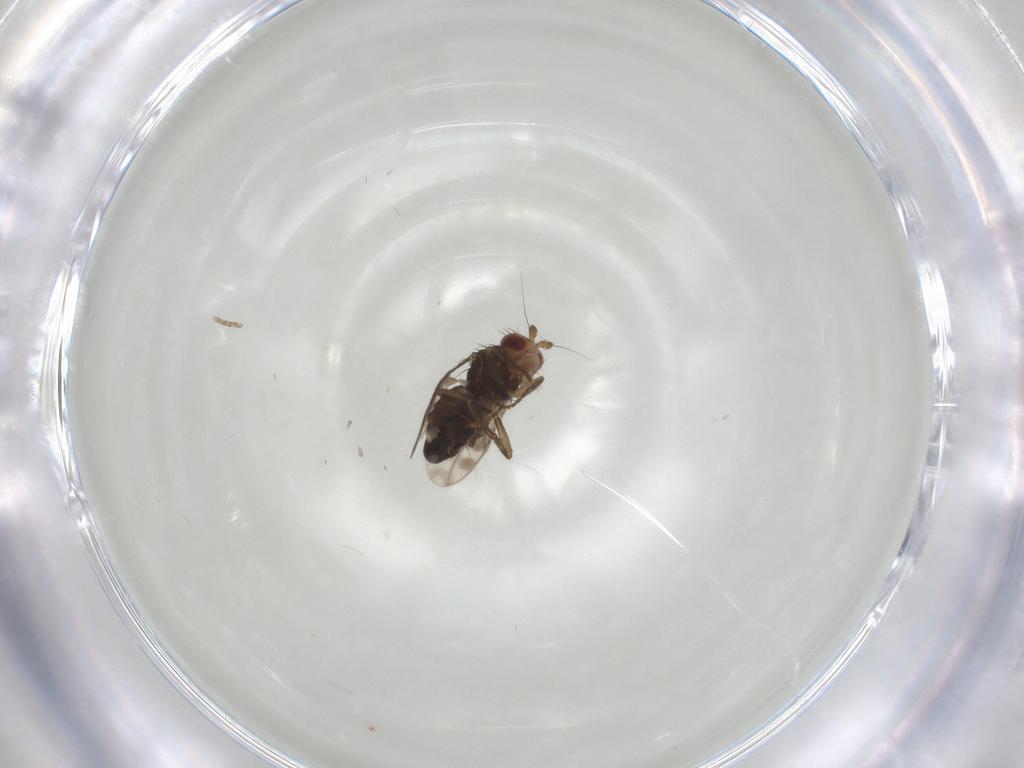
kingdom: Animalia
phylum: Arthropoda
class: Insecta
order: Diptera
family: Sphaeroceridae
